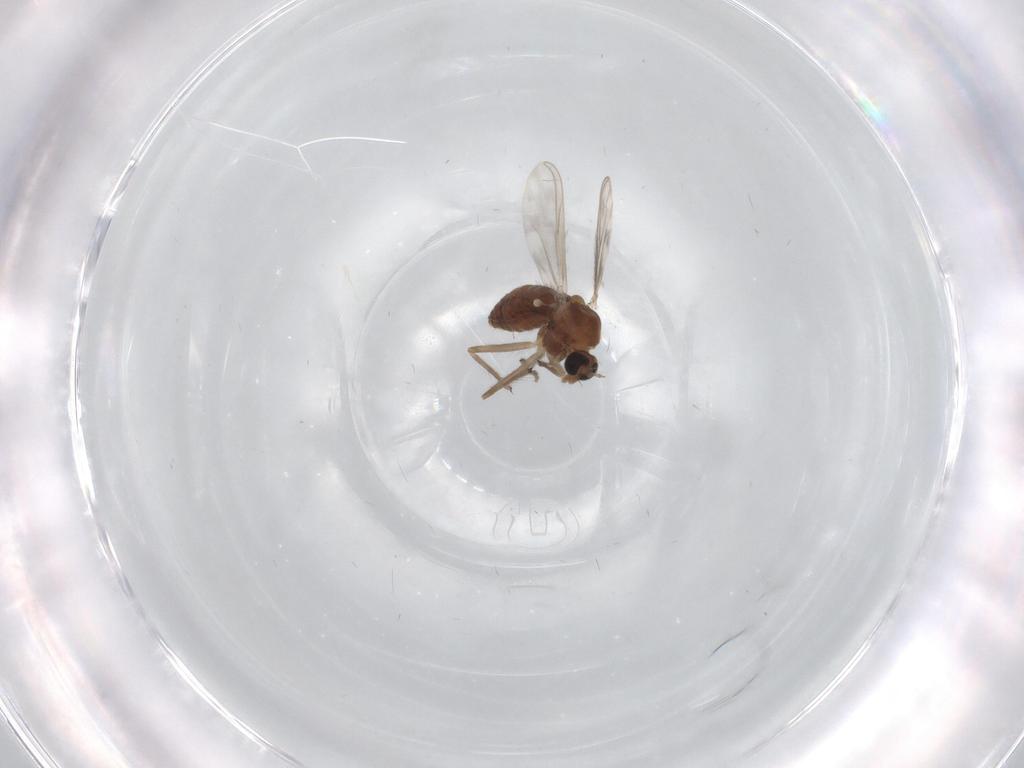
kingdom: Animalia
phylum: Arthropoda
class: Insecta
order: Diptera
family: Chironomidae
